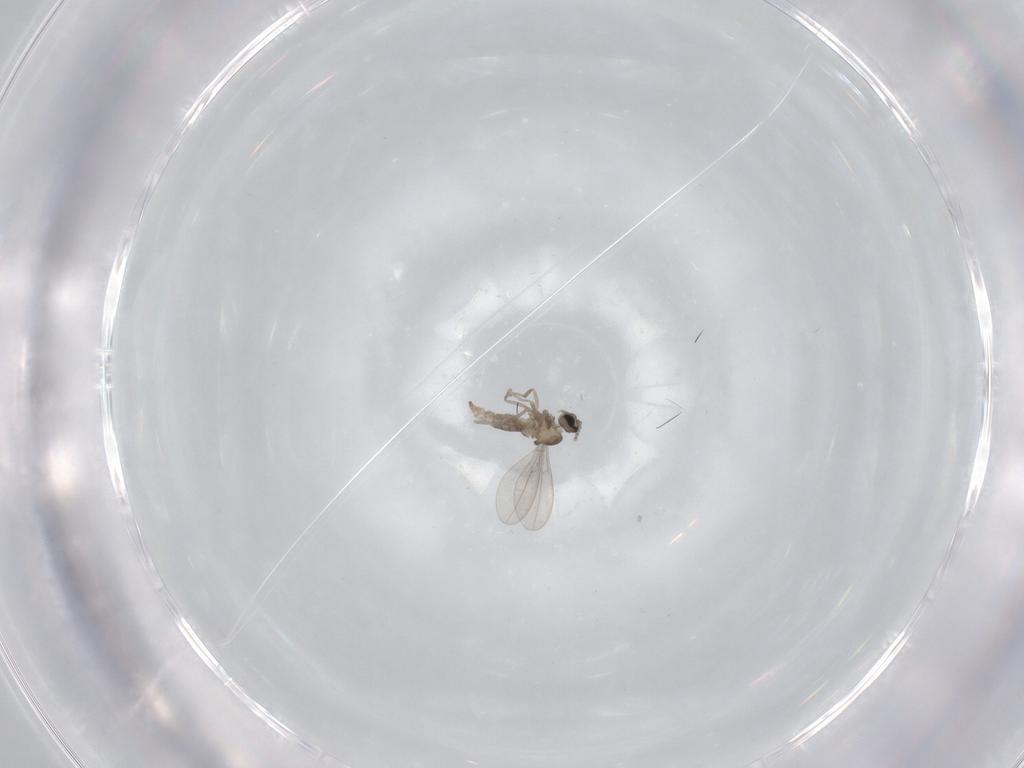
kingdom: Animalia
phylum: Arthropoda
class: Insecta
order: Diptera
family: Cecidomyiidae
